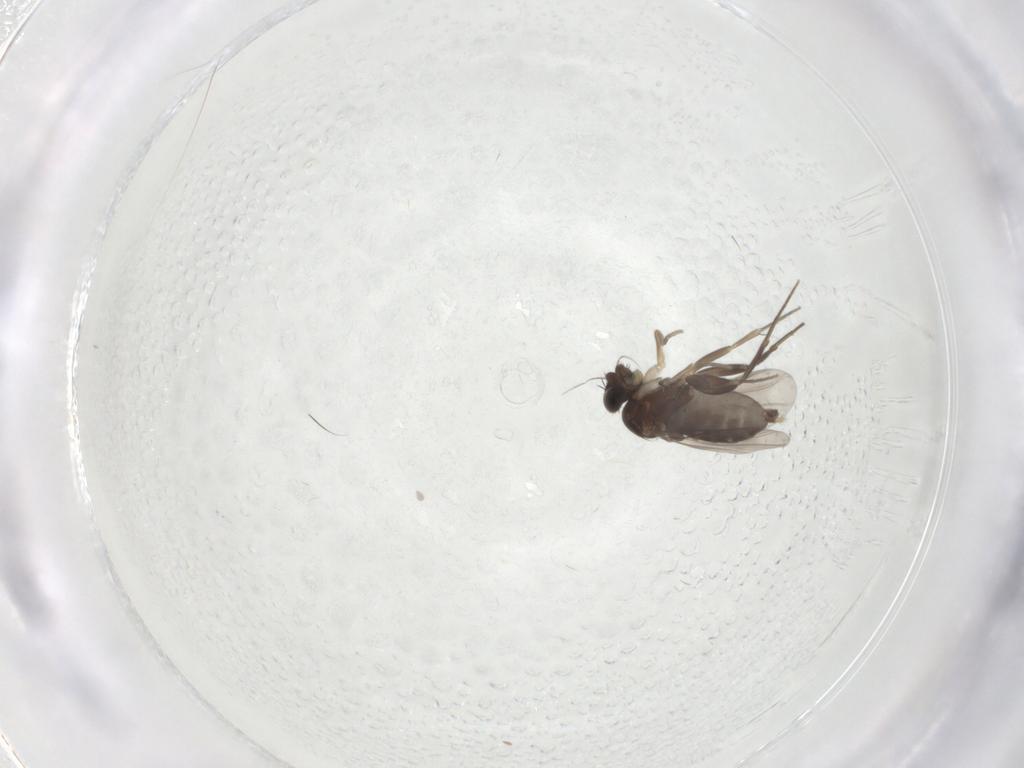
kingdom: Animalia
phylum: Arthropoda
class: Insecta
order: Diptera
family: Phoridae
